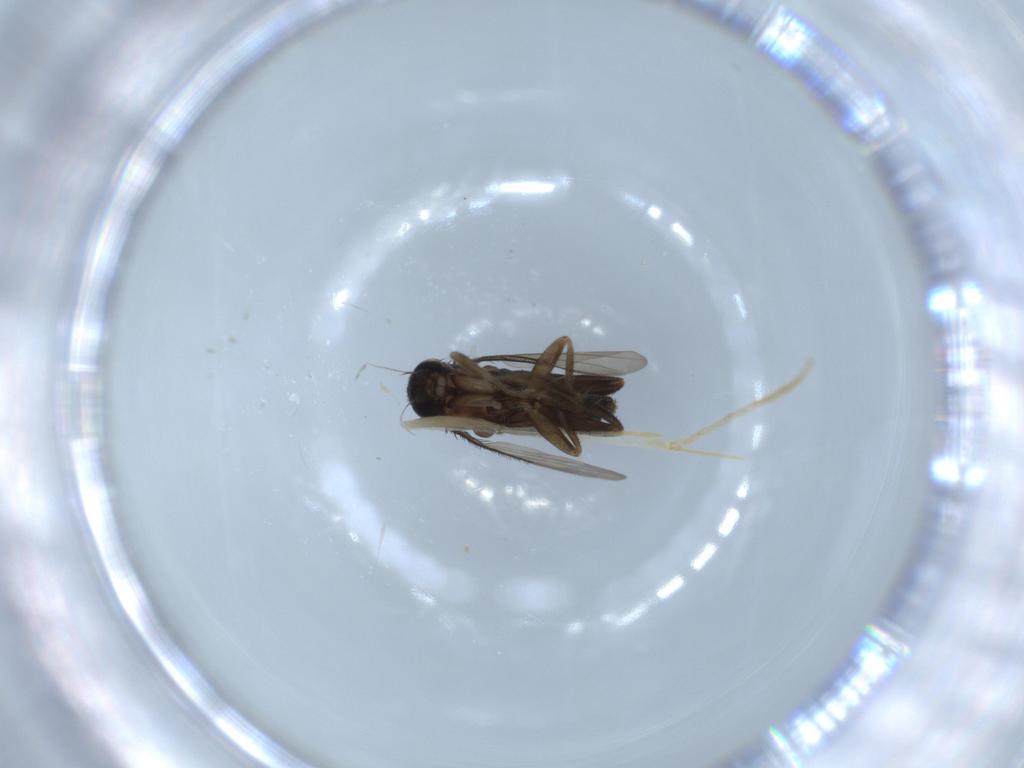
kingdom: Animalia
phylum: Arthropoda
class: Insecta
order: Diptera
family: Phoridae
